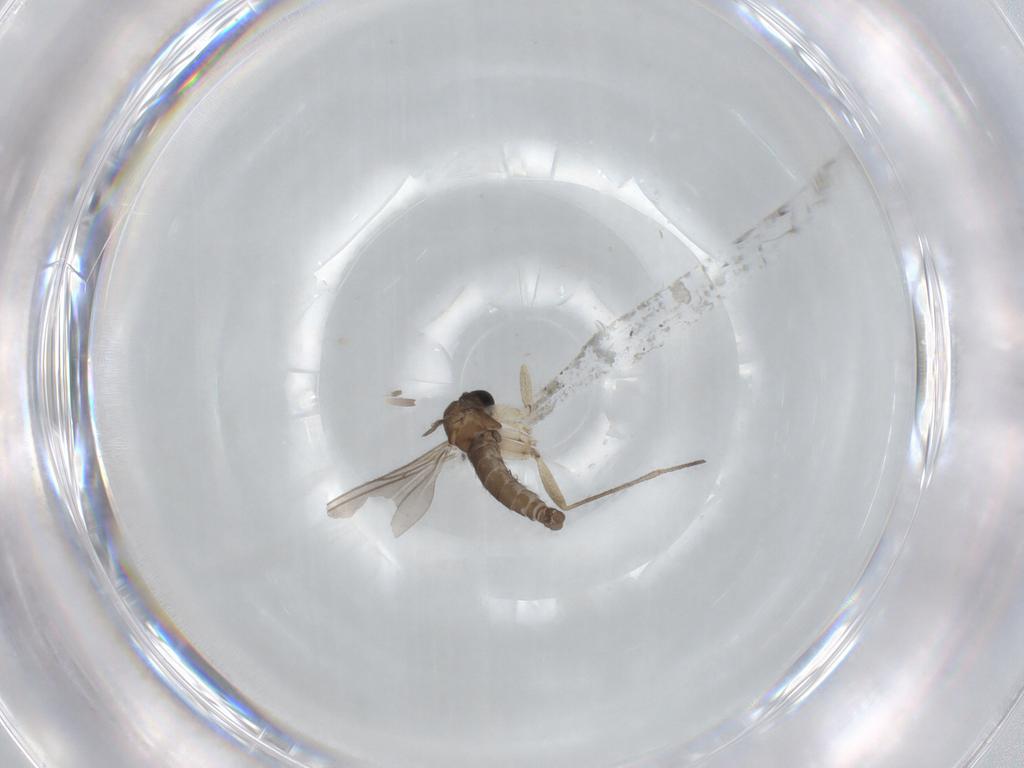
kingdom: Animalia
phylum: Arthropoda
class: Insecta
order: Diptera
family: Sciaridae
